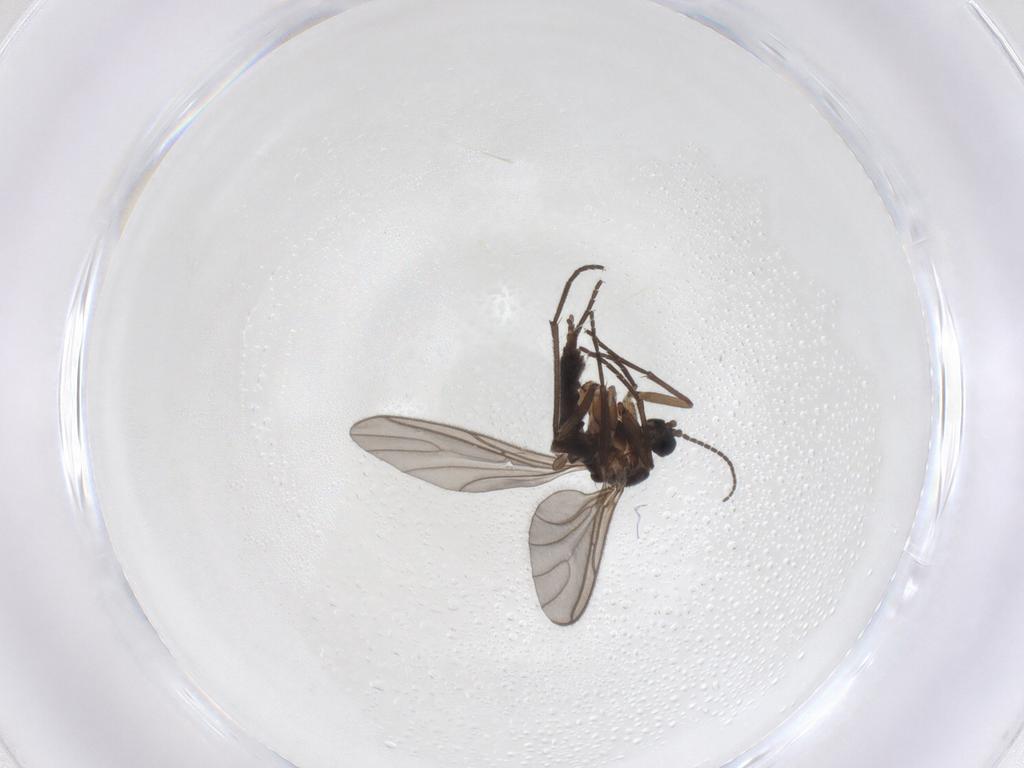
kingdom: Animalia
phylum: Arthropoda
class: Insecta
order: Diptera
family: Sciaridae
